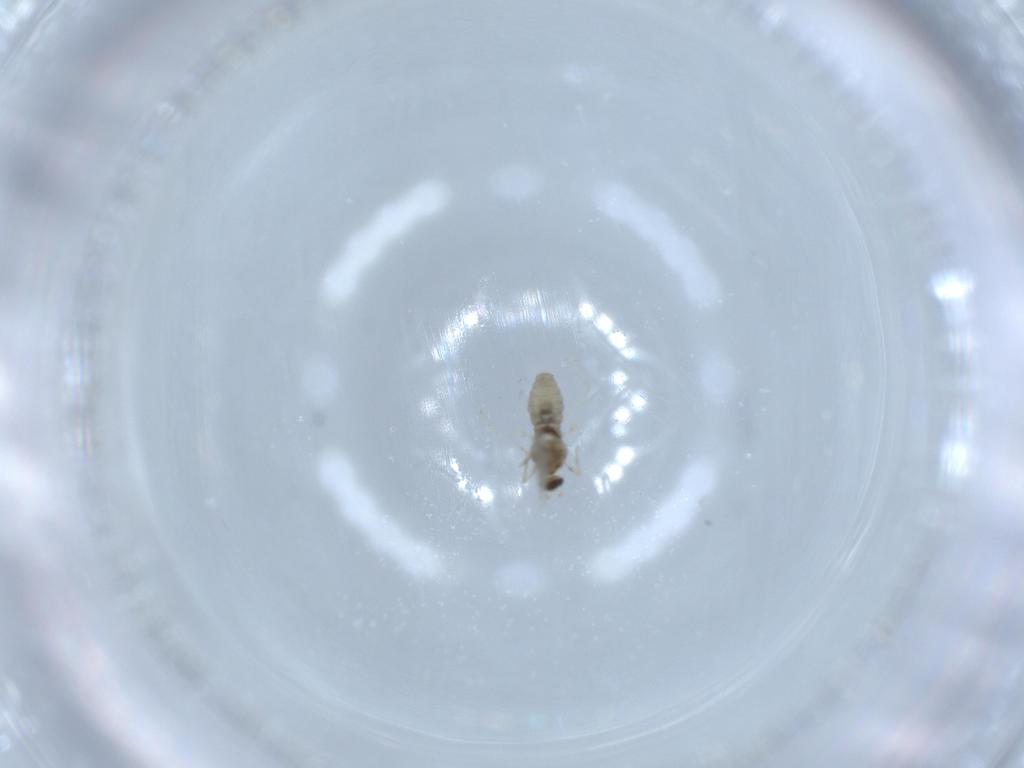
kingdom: Animalia
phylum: Arthropoda
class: Insecta
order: Diptera
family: Cecidomyiidae
